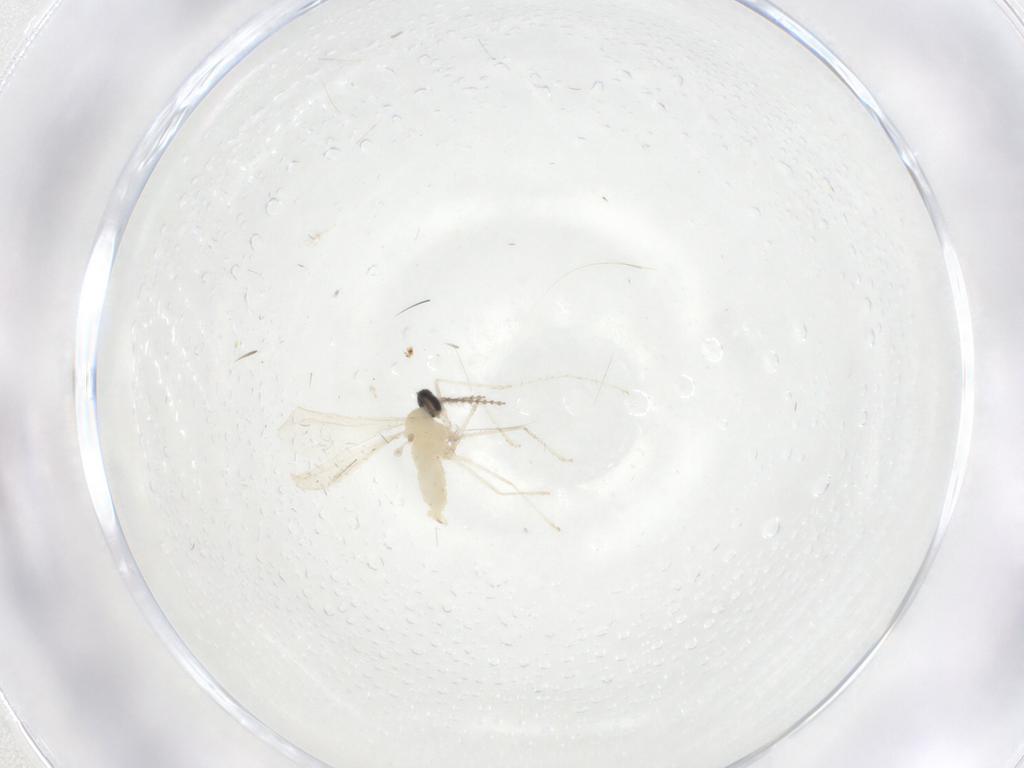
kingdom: Animalia
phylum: Arthropoda
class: Insecta
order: Diptera
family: Cecidomyiidae
